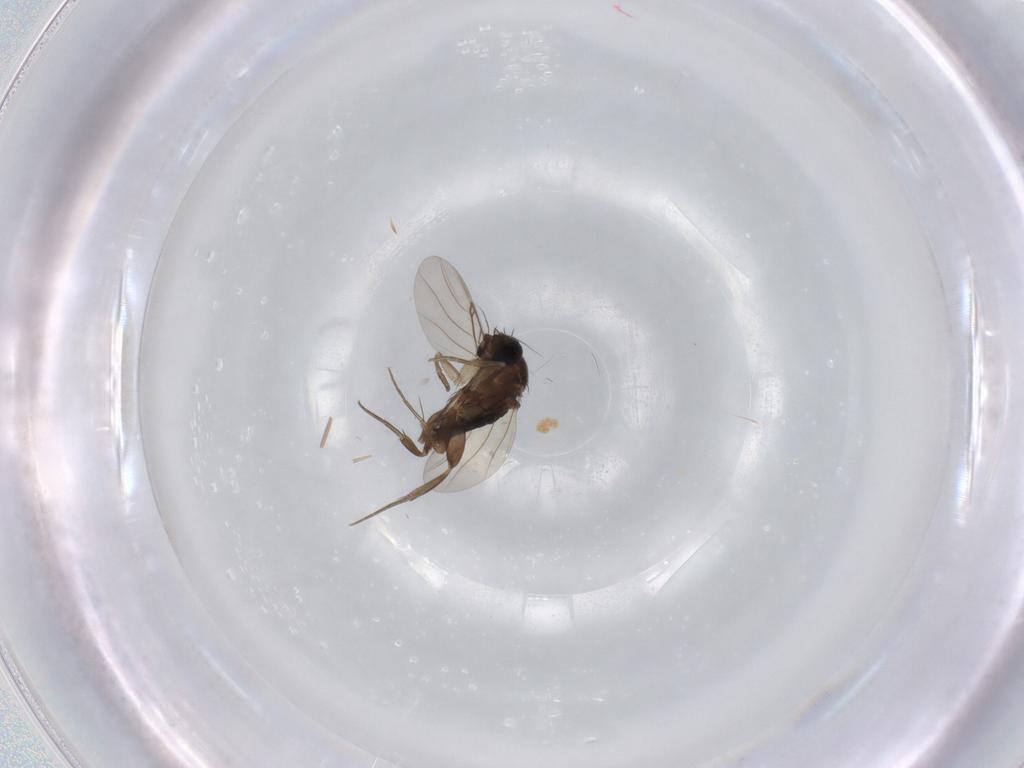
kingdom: Animalia
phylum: Arthropoda
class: Insecta
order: Diptera
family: Phoridae
